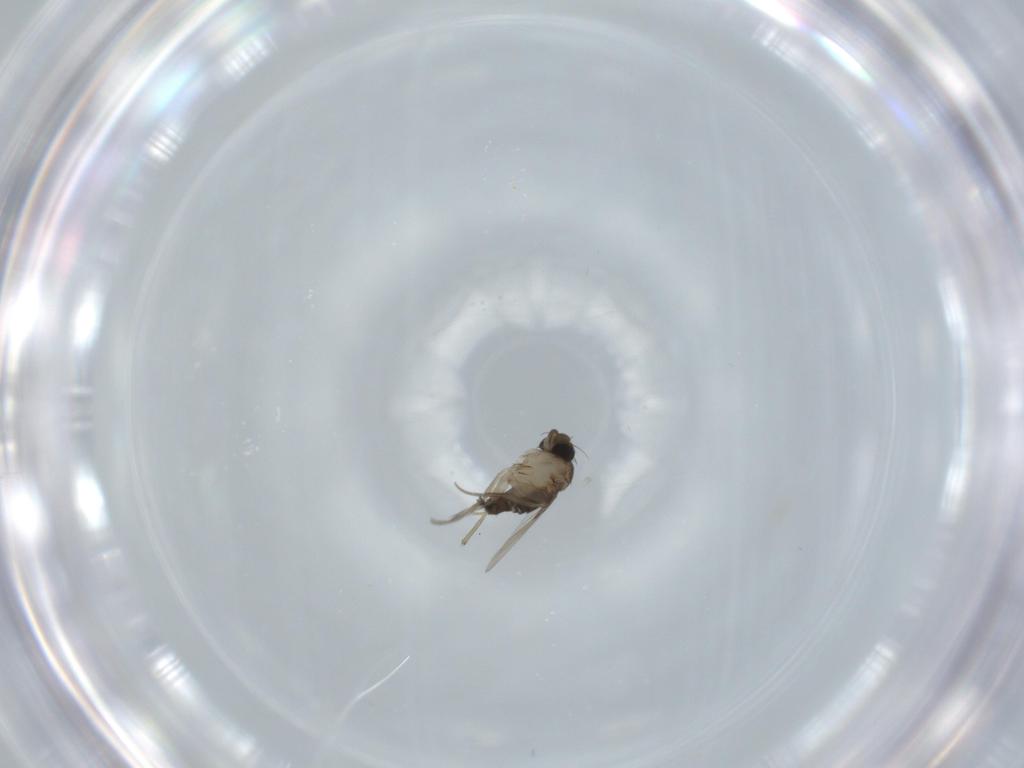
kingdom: Animalia
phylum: Arthropoda
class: Insecta
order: Diptera
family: Phoridae
